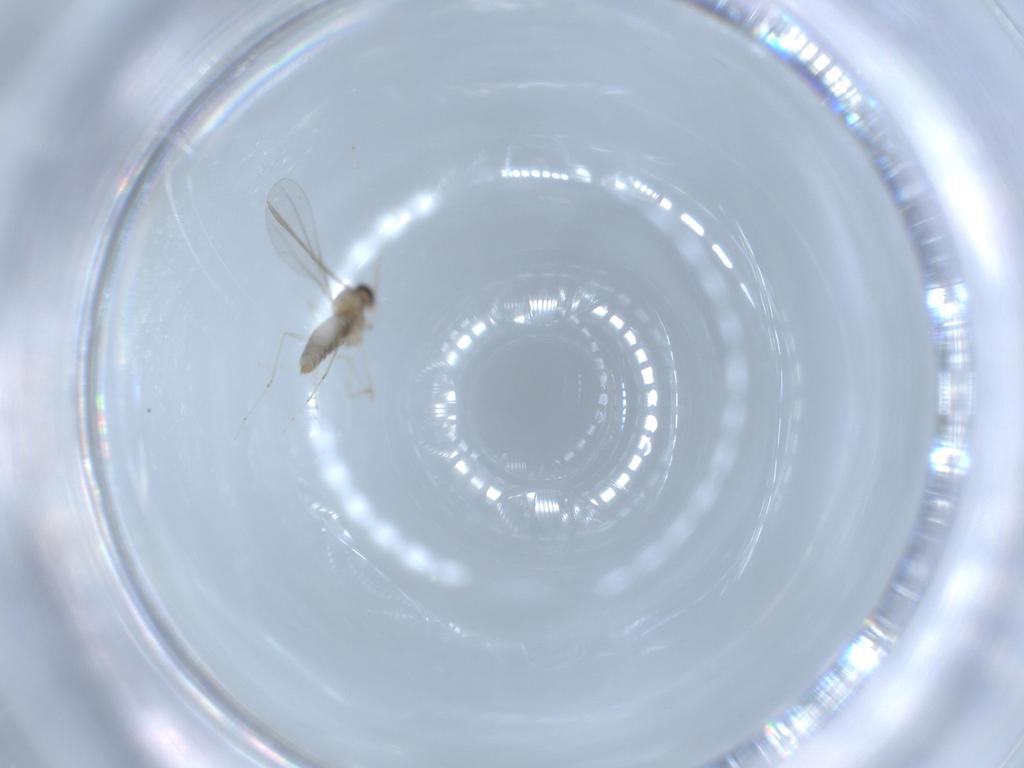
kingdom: Animalia
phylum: Arthropoda
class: Insecta
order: Diptera
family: Cecidomyiidae
